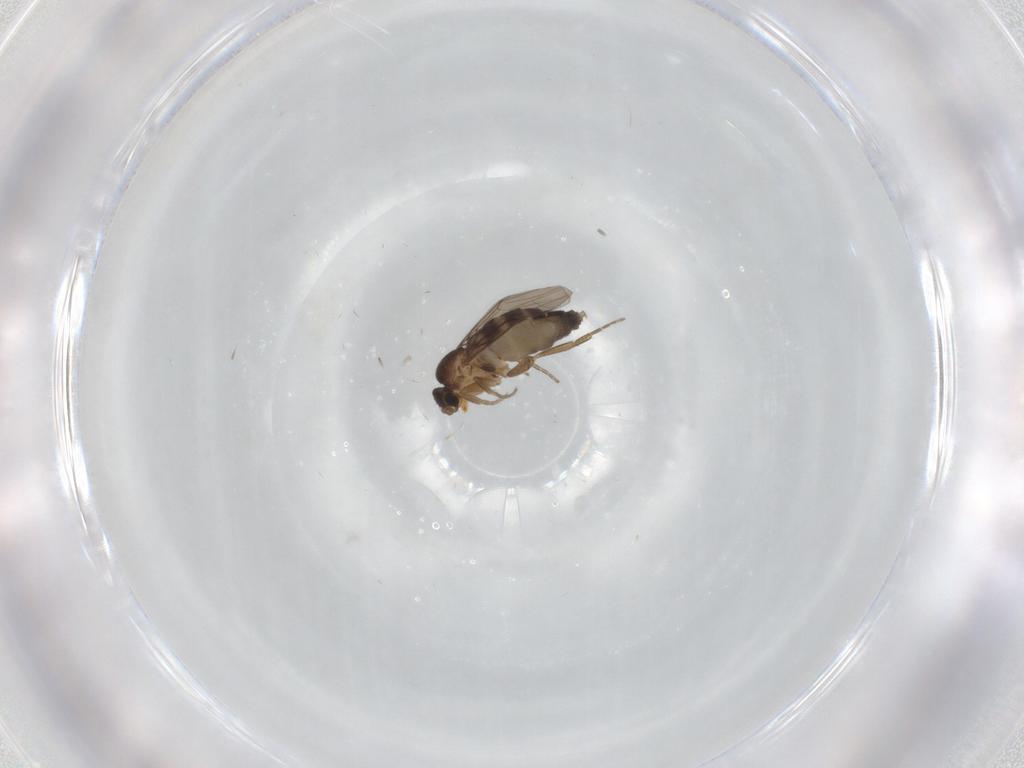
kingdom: Animalia
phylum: Arthropoda
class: Insecta
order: Diptera
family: Phoridae
